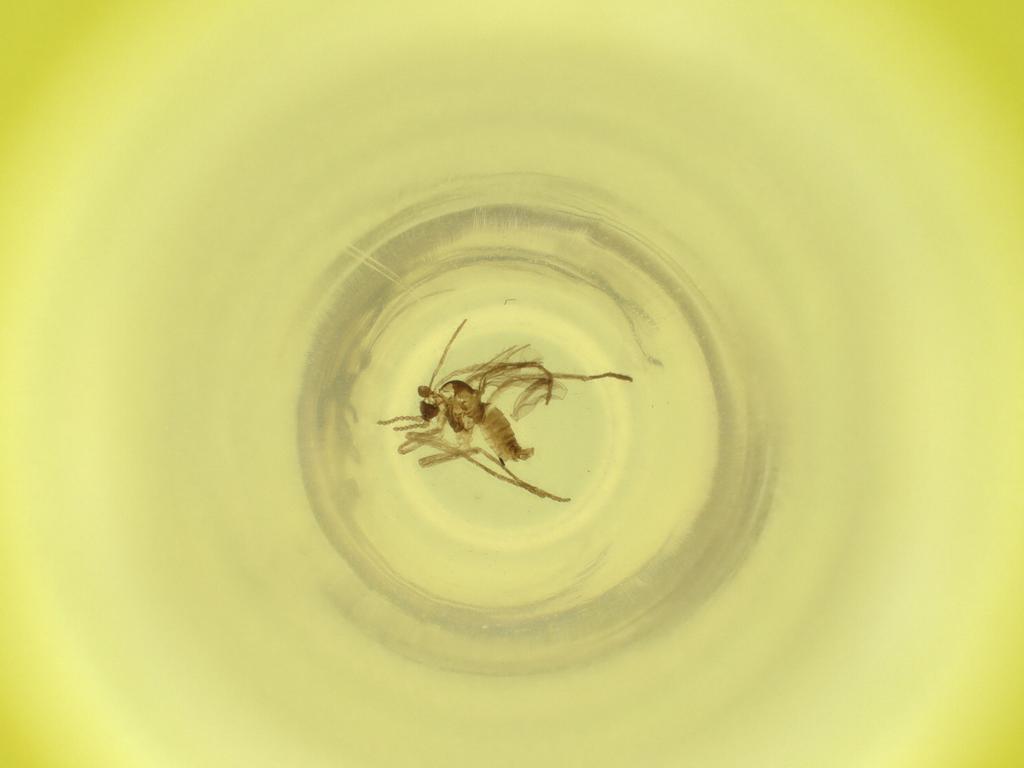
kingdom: Animalia
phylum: Arthropoda
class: Insecta
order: Diptera
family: Cecidomyiidae
